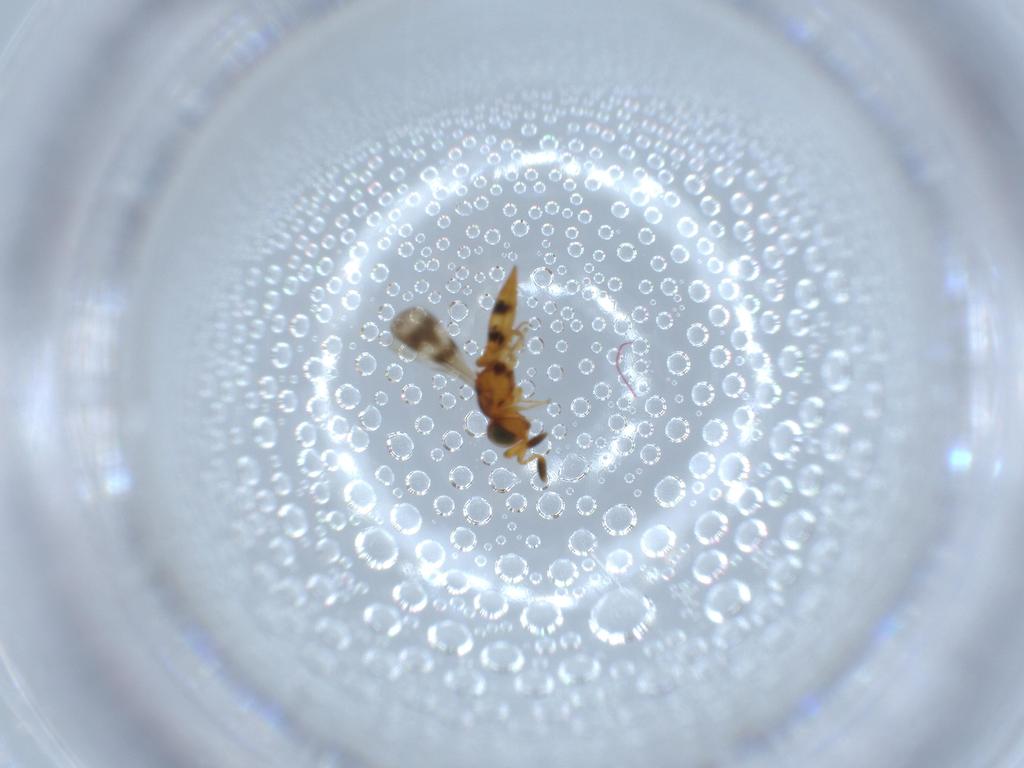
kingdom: Animalia
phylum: Arthropoda
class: Insecta
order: Hymenoptera
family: Scelionidae
